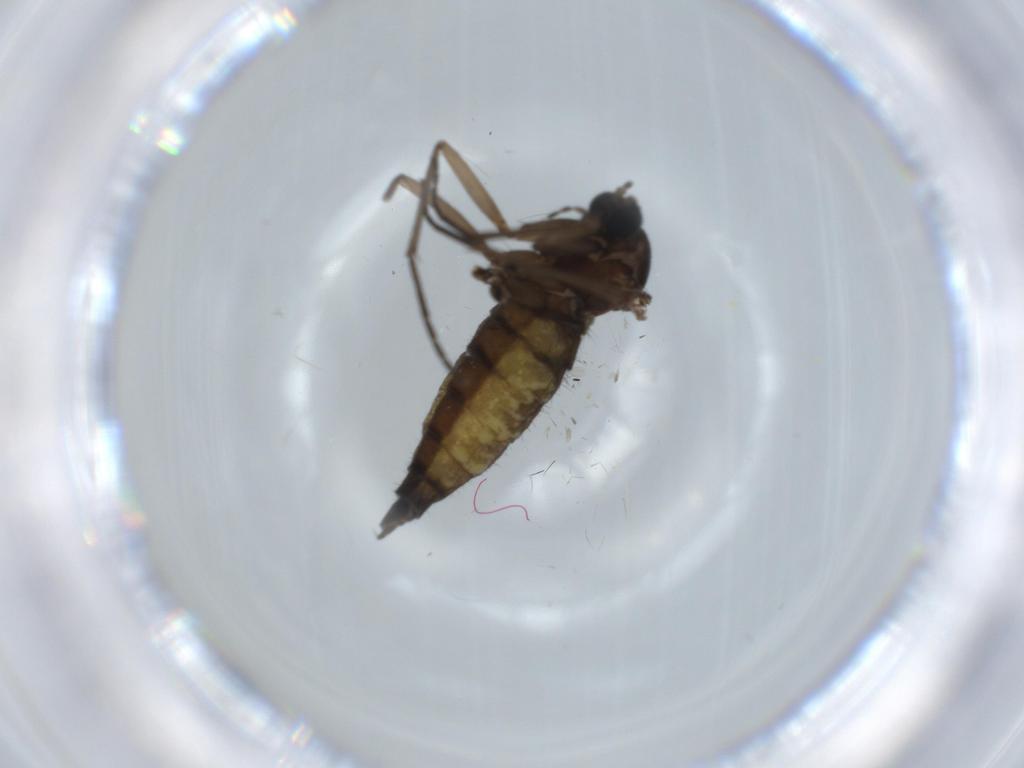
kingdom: Animalia
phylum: Arthropoda
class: Insecta
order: Diptera
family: Sciaridae
